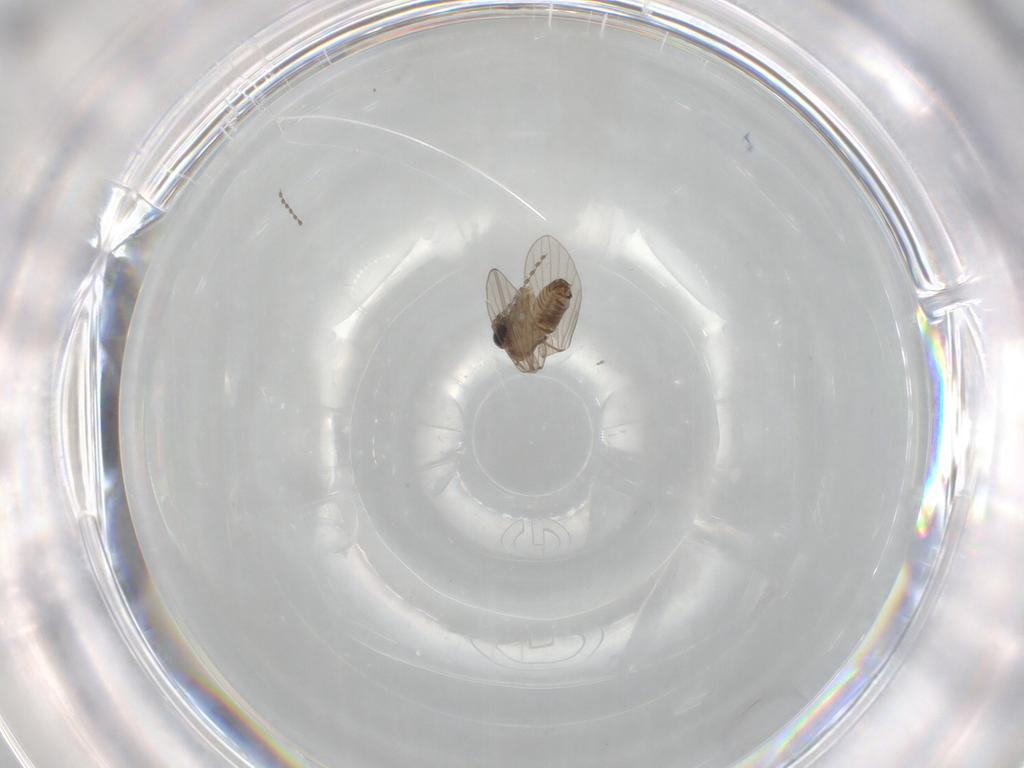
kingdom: Animalia
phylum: Arthropoda
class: Insecta
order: Diptera
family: Psychodidae
